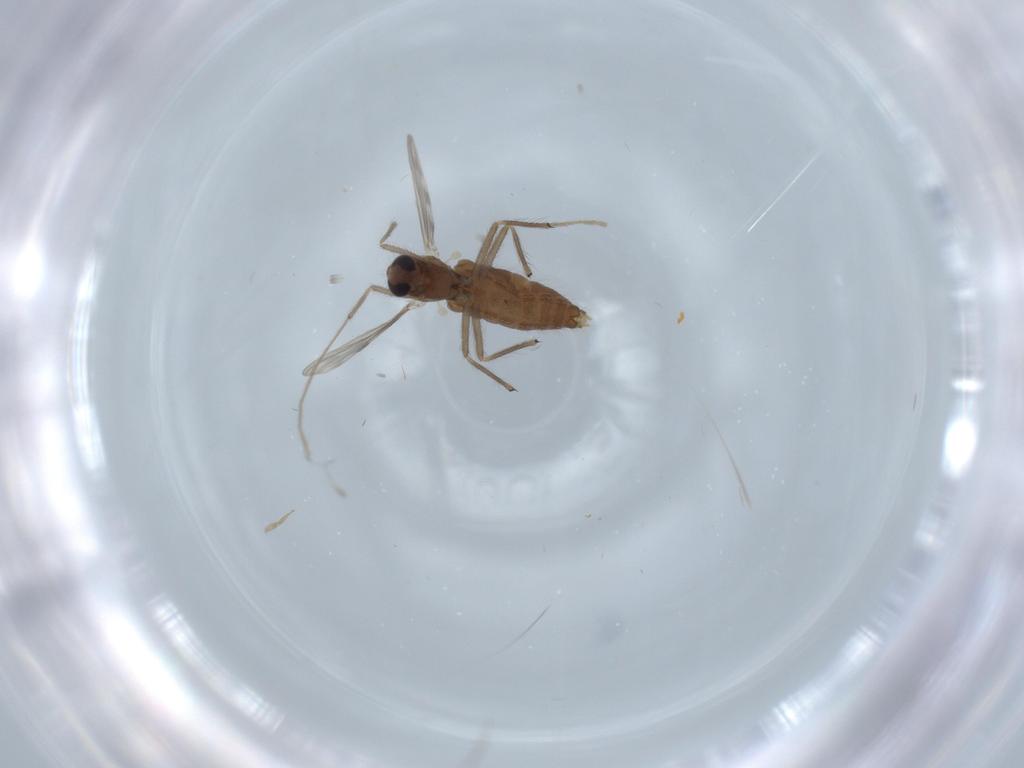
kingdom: Animalia
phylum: Arthropoda
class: Insecta
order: Diptera
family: Chironomidae
